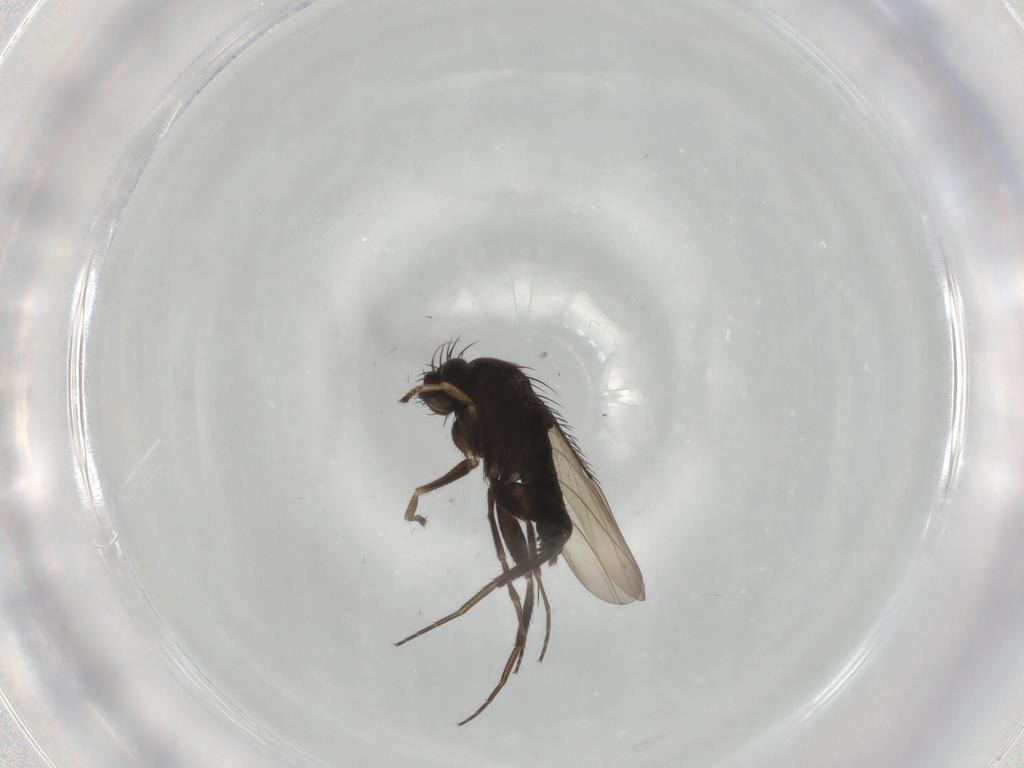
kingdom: Animalia
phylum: Arthropoda
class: Insecta
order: Diptera
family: Phoridae
